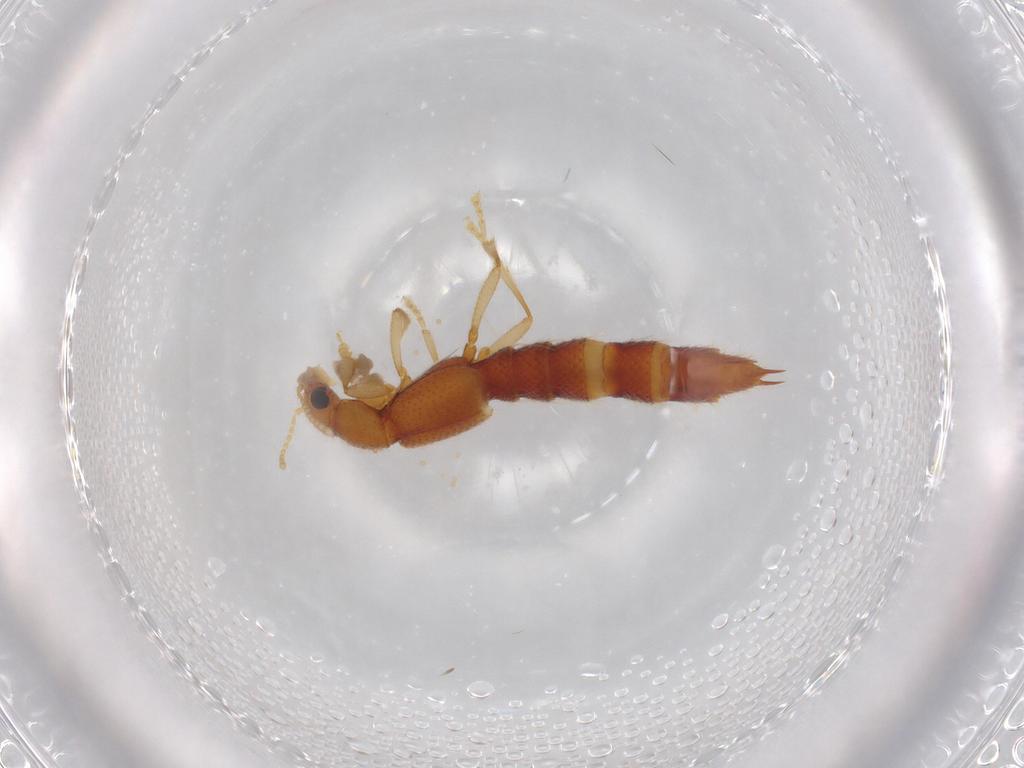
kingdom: Animalia
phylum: Arthropoda
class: Insecta
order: Coleoptera
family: Staphylinidae
